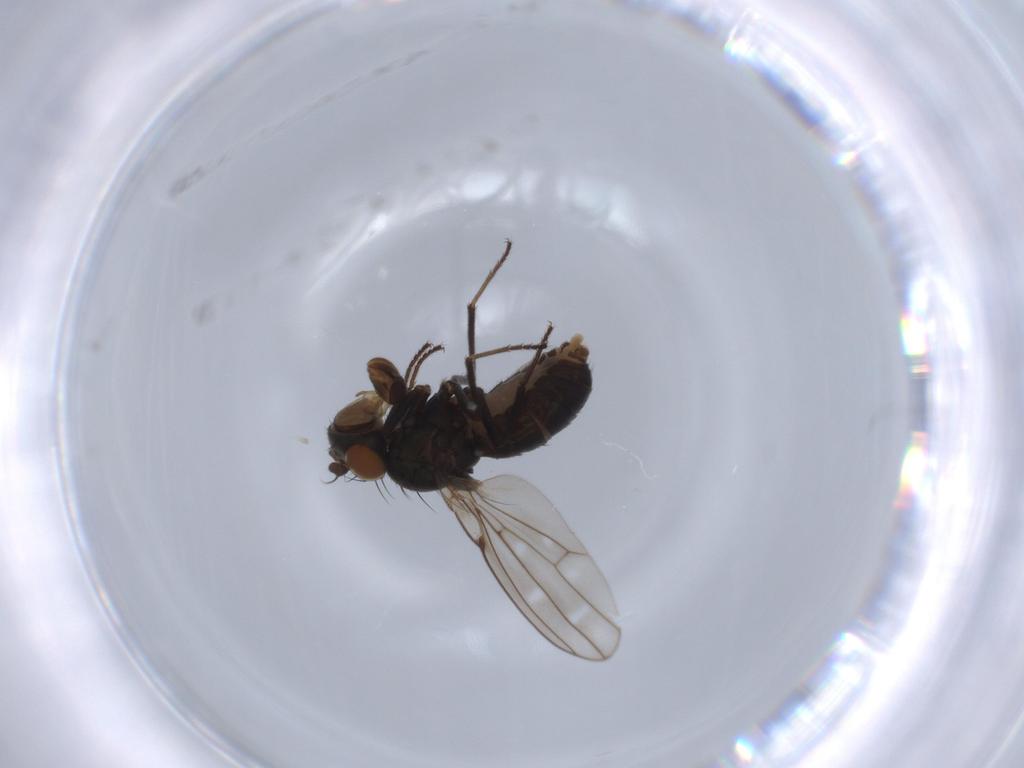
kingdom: Animalia
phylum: Arthropoda
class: Insecta
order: Diptera
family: Ephydridae
